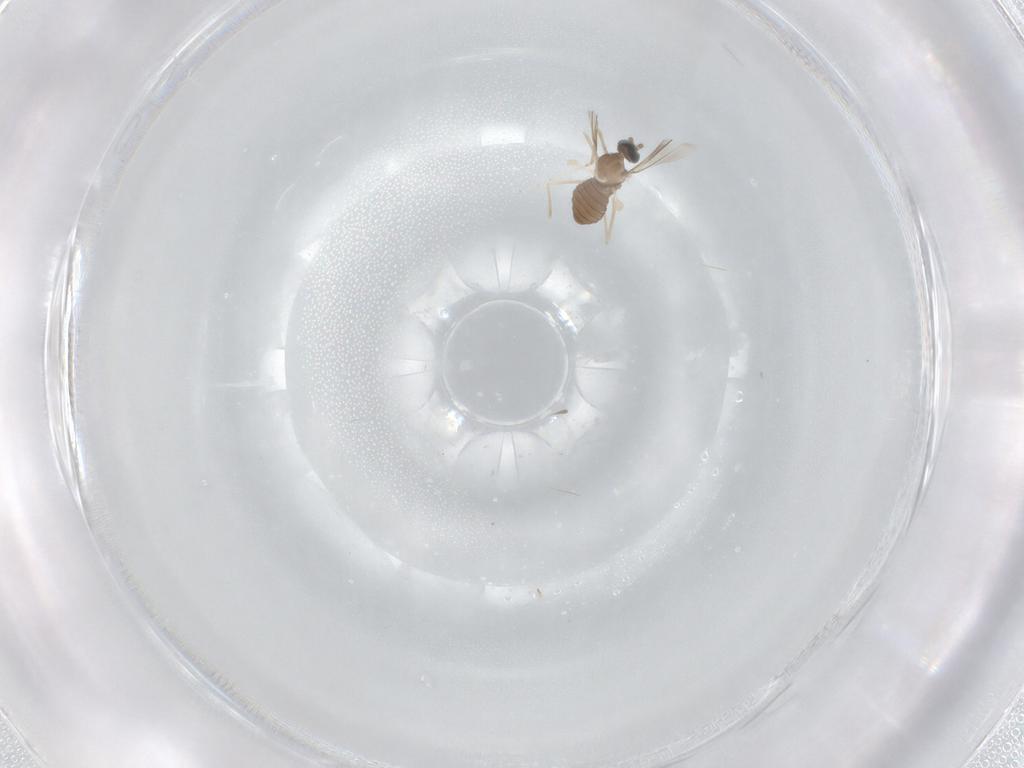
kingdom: Animalia
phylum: Arthropoda
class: Insecta
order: Diptera
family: Cecidomyiidae
